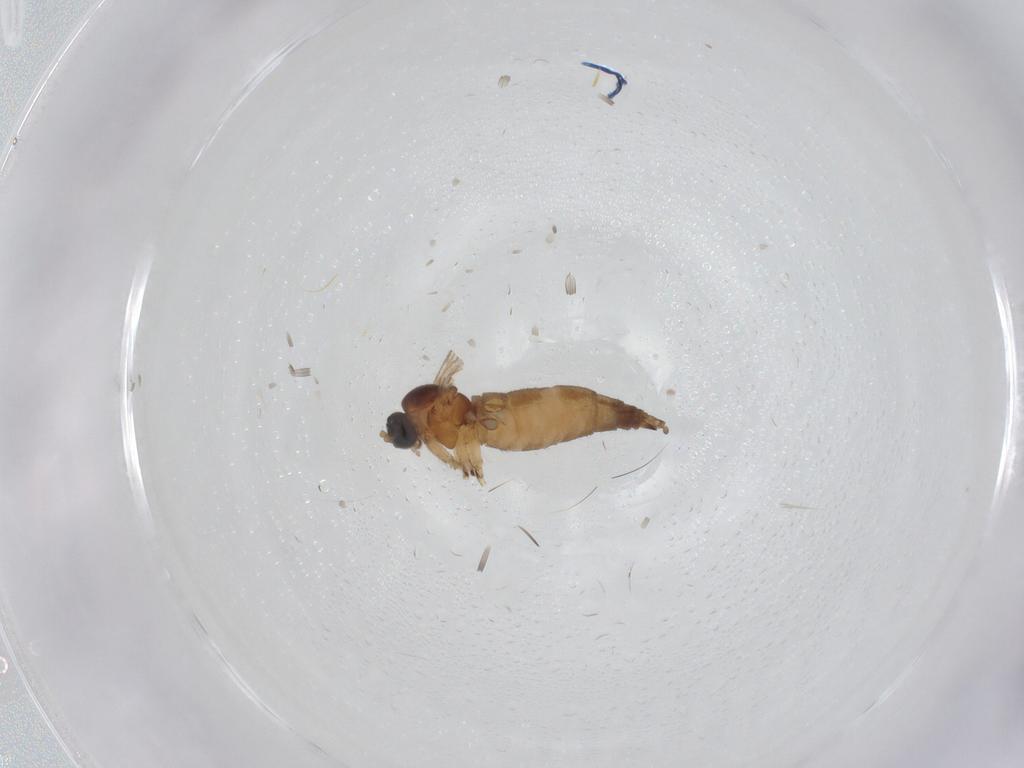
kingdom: Animalia
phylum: Arthropoda
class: Insecta
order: Diptera
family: Sciaridae
